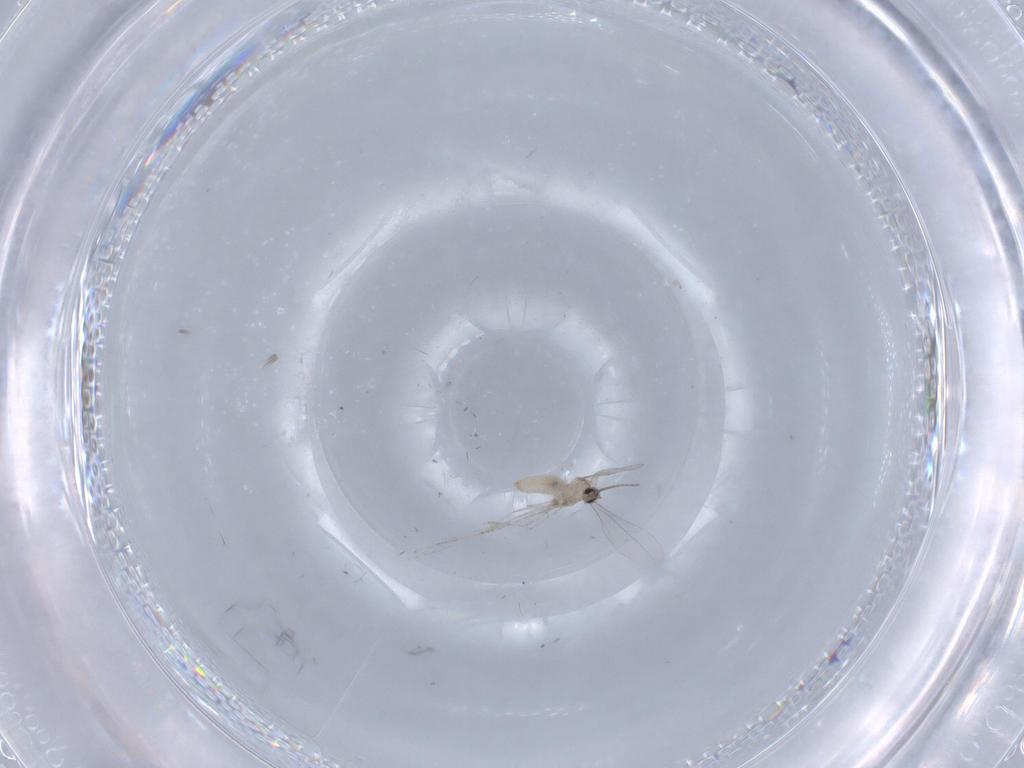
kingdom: Animalia
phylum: Arthropoda
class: Insecta
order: Diptera
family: Cecidomyiidae
